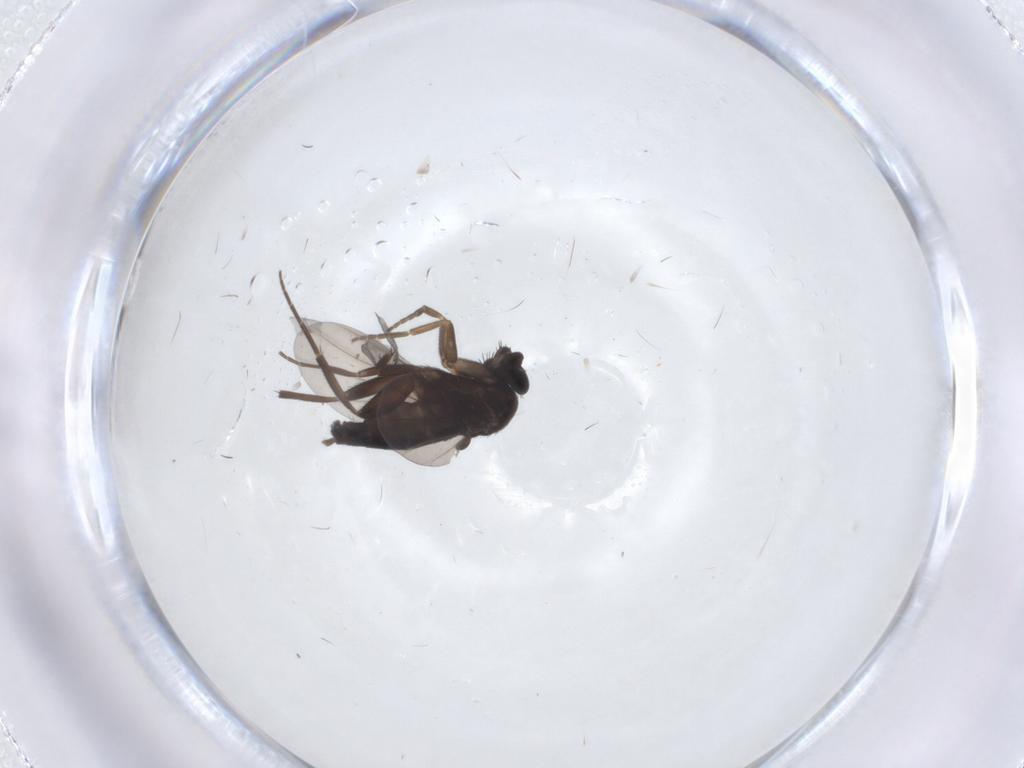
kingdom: Animalia
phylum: Arthropoda
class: Insecta
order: Diptera
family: Phoridae
